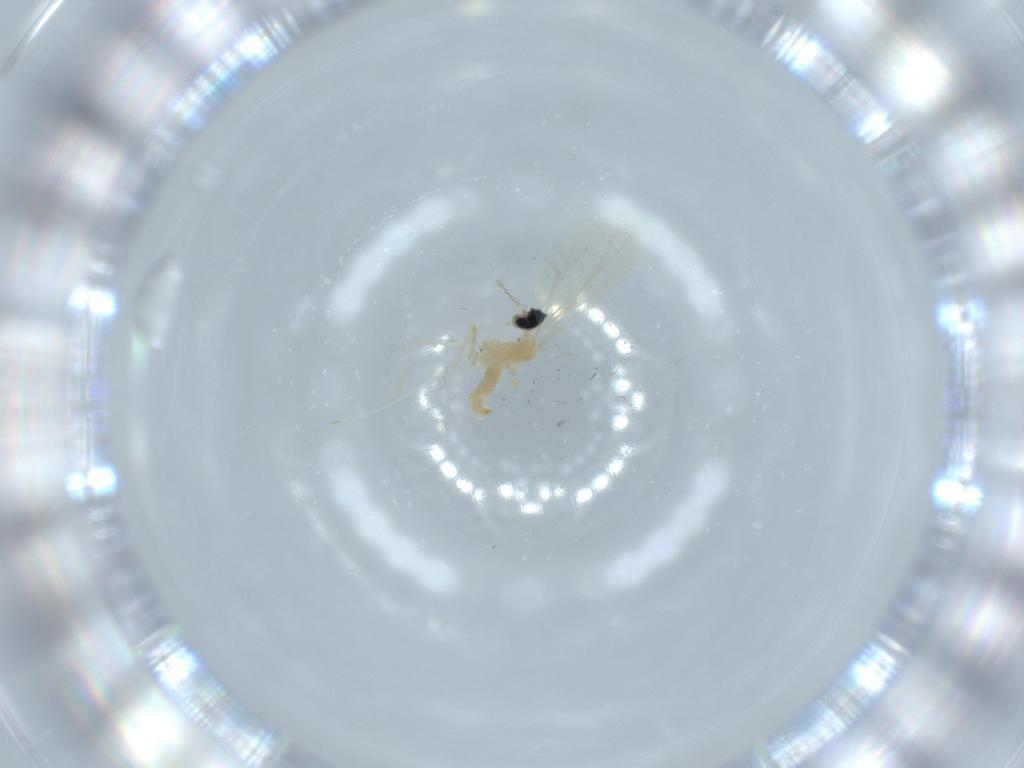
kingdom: Animalia
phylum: Arthropoda
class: Insecta
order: Diptera
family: Cecidomyiidae
